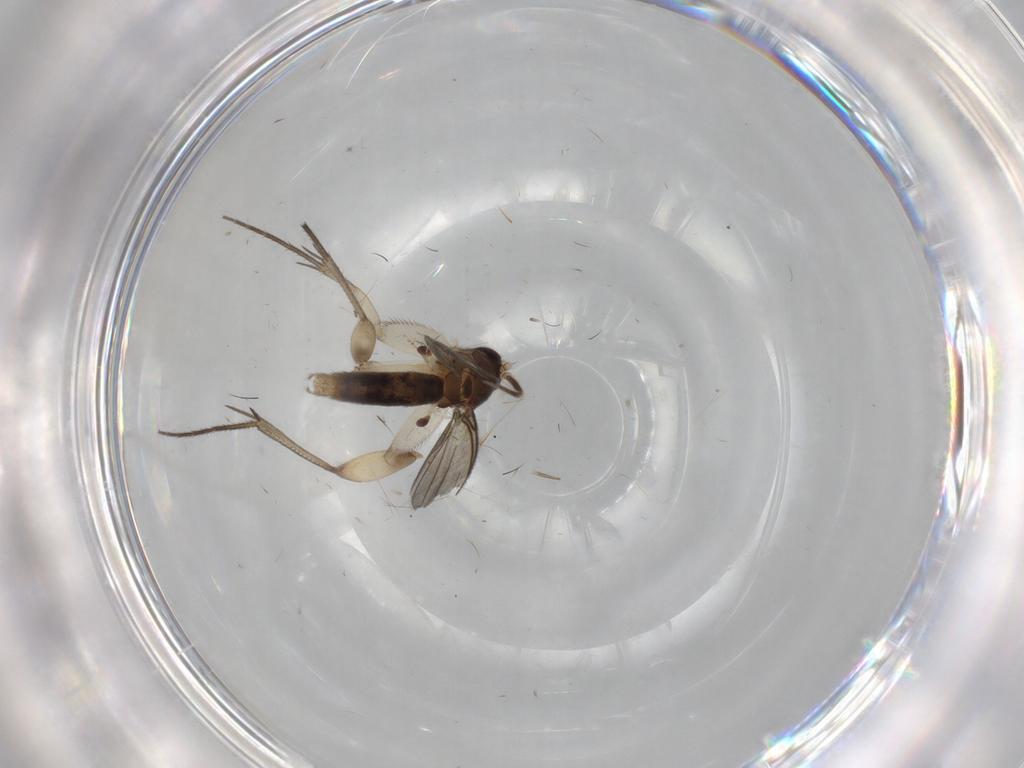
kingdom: Animalia
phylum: Arthropoda
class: Insecta
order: Diptera
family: Mycetophilidae
